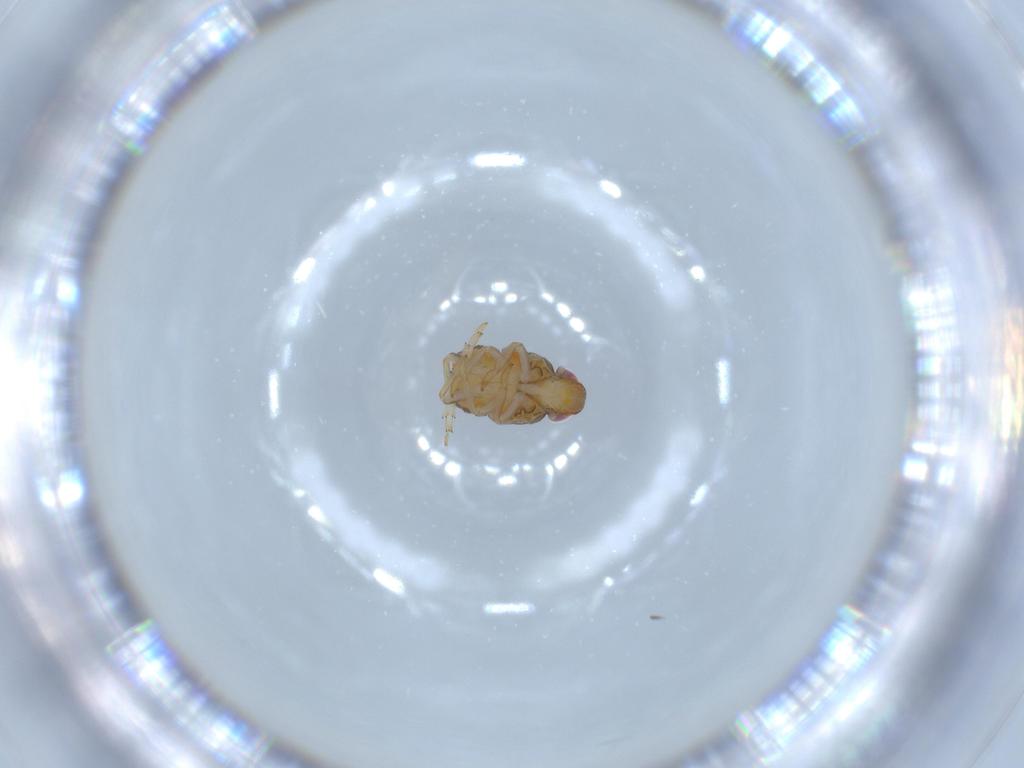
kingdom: Animalia
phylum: Arthropoda
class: Insecta
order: Hemiptera
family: Issidae
